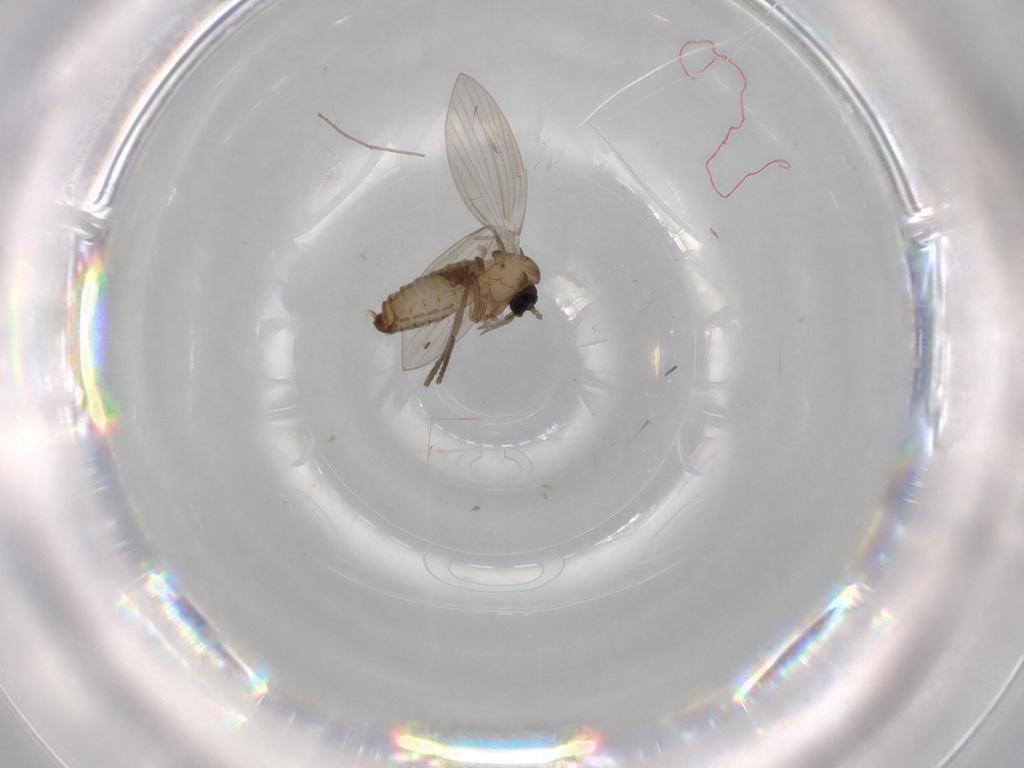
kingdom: Animalia
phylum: Arthropoda
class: Insecta
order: Diptera
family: Psychodidae
